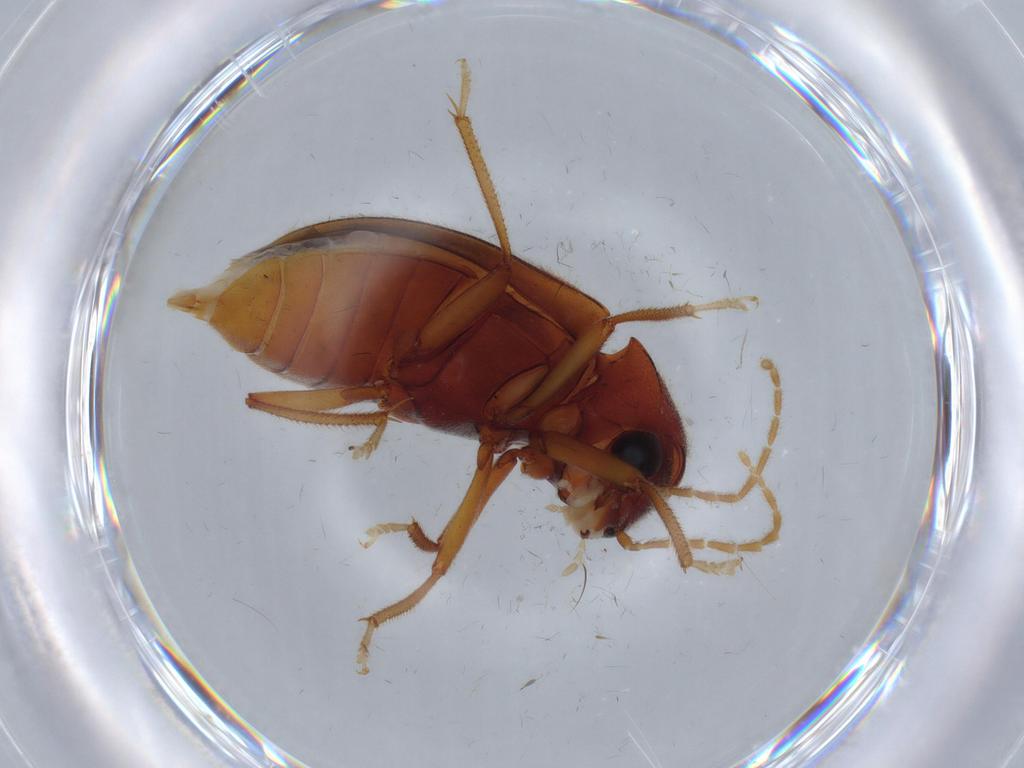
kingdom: Animalia
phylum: Arthropoda
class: Insecta
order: Coleoptera
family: Ptilodactylidae
